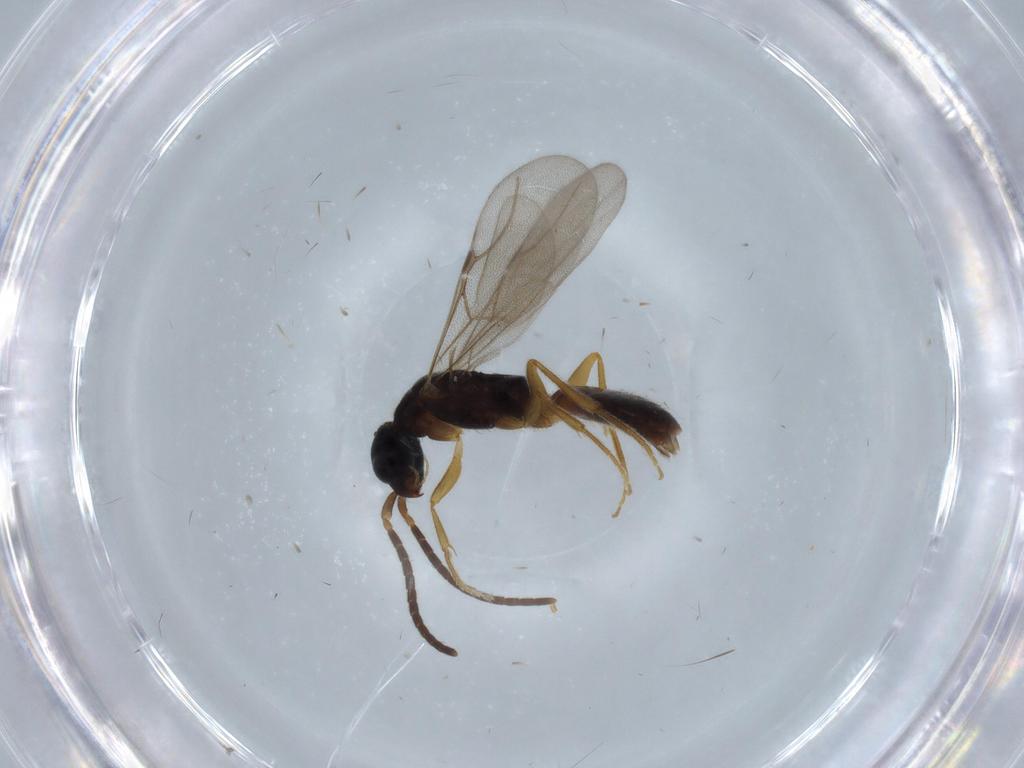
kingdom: Animalia
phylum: Arthropoda
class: Insecta
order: Hymenoptera
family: Bethylidae
